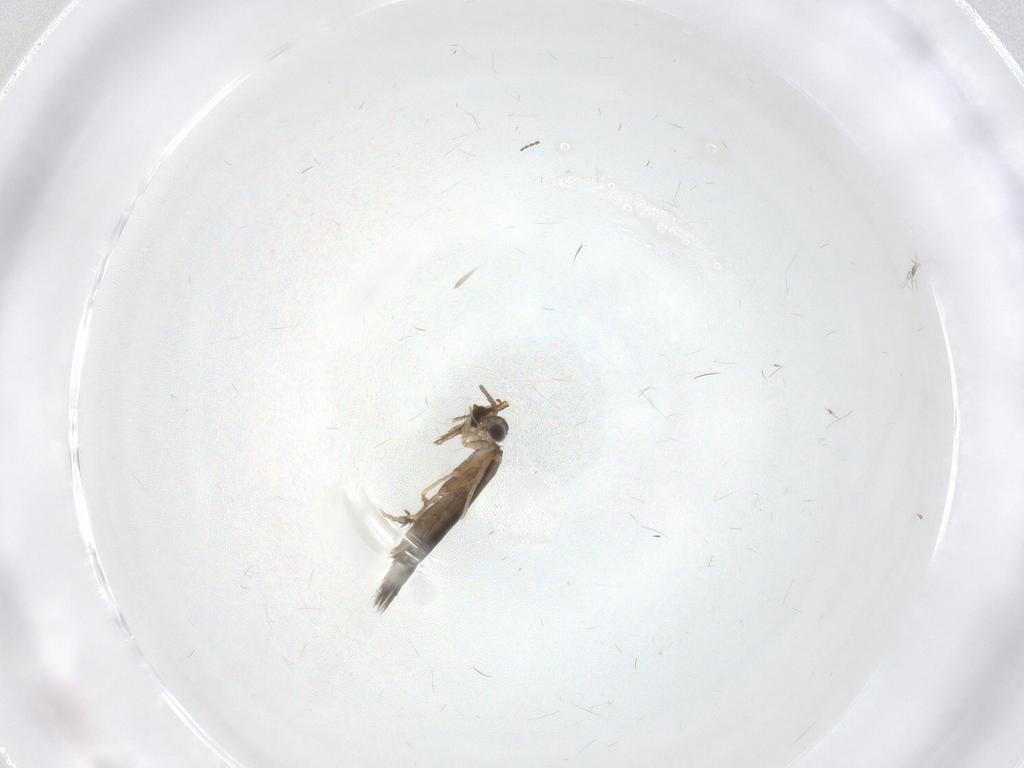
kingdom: Animalia
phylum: Arthropoda
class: Insecta
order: Trichoptera
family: Hydroptilidae
